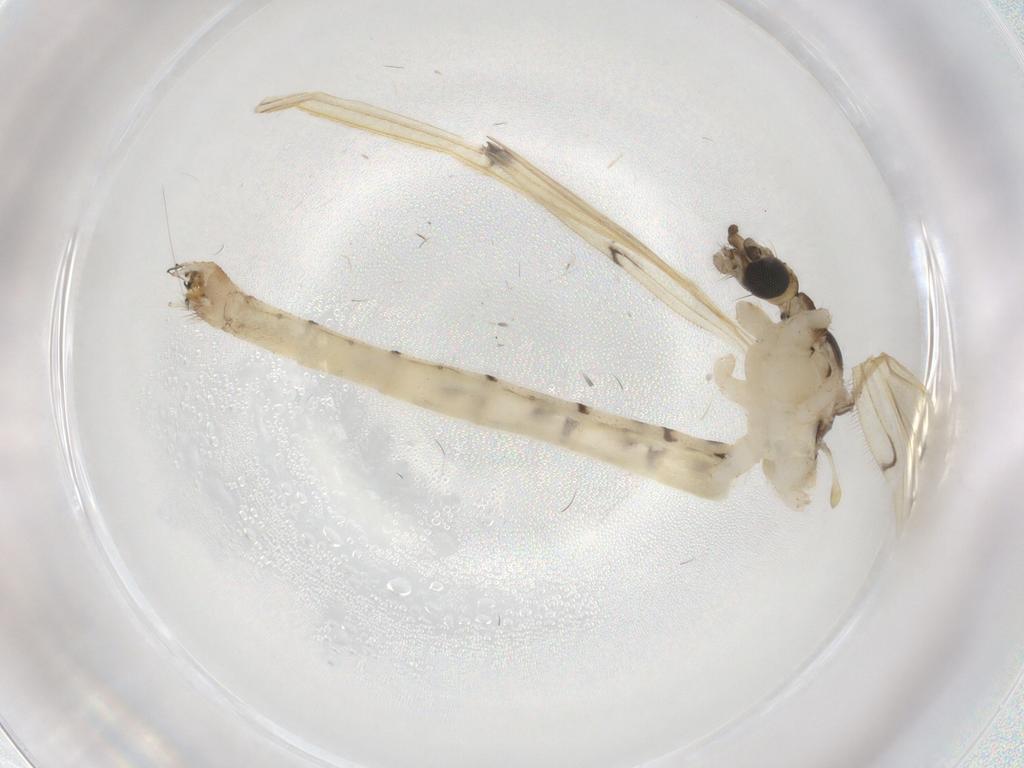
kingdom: Animalia
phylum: Arthropoda
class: Insecta
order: Diptera
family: Limoniidae
